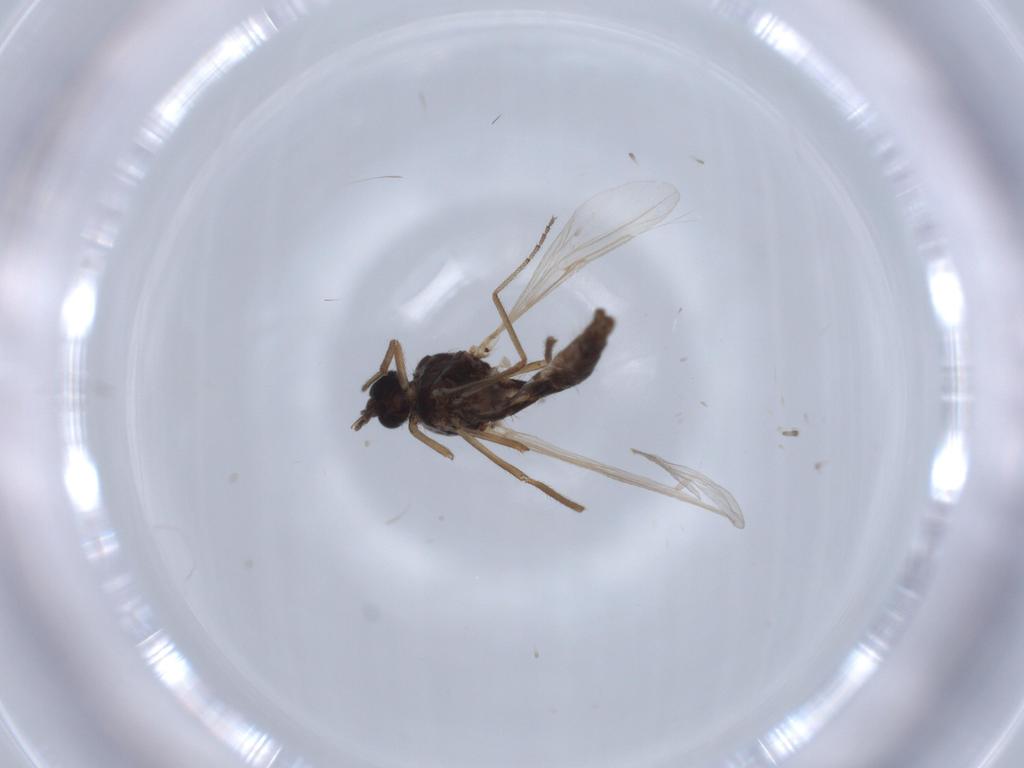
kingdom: Animalia
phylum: Arthropoda
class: Insecta
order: Diptera
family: Ceratopogonidae
